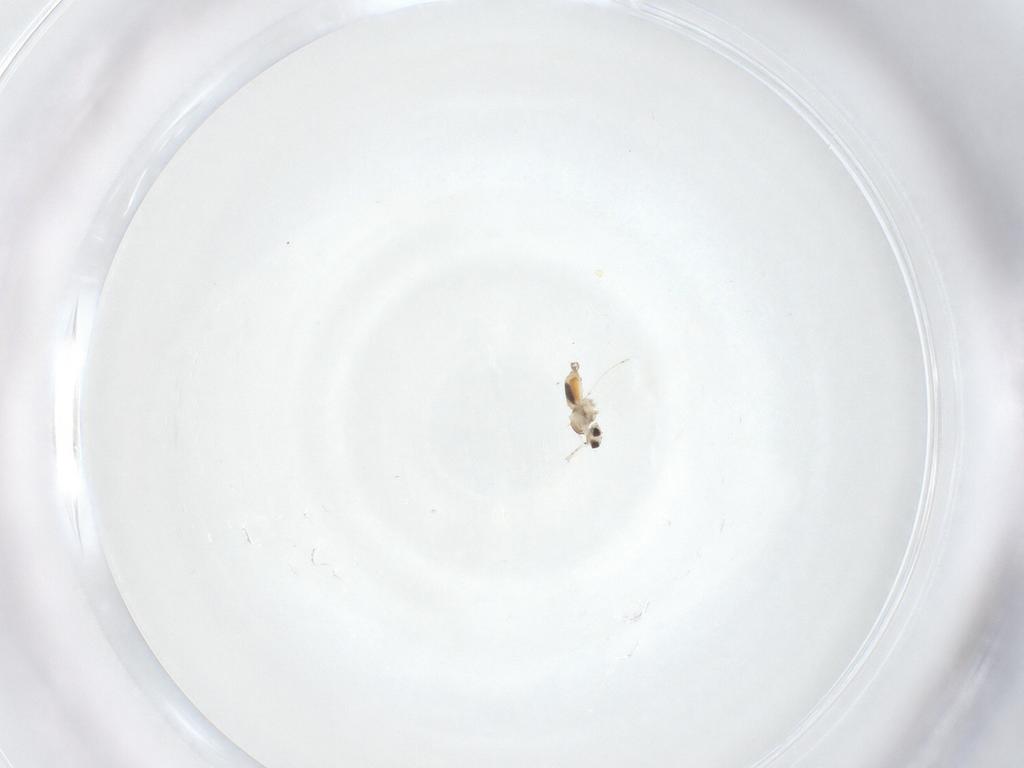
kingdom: Animalia
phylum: Arthropoda
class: Insecta
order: Diptera
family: Cecidomyiidae
